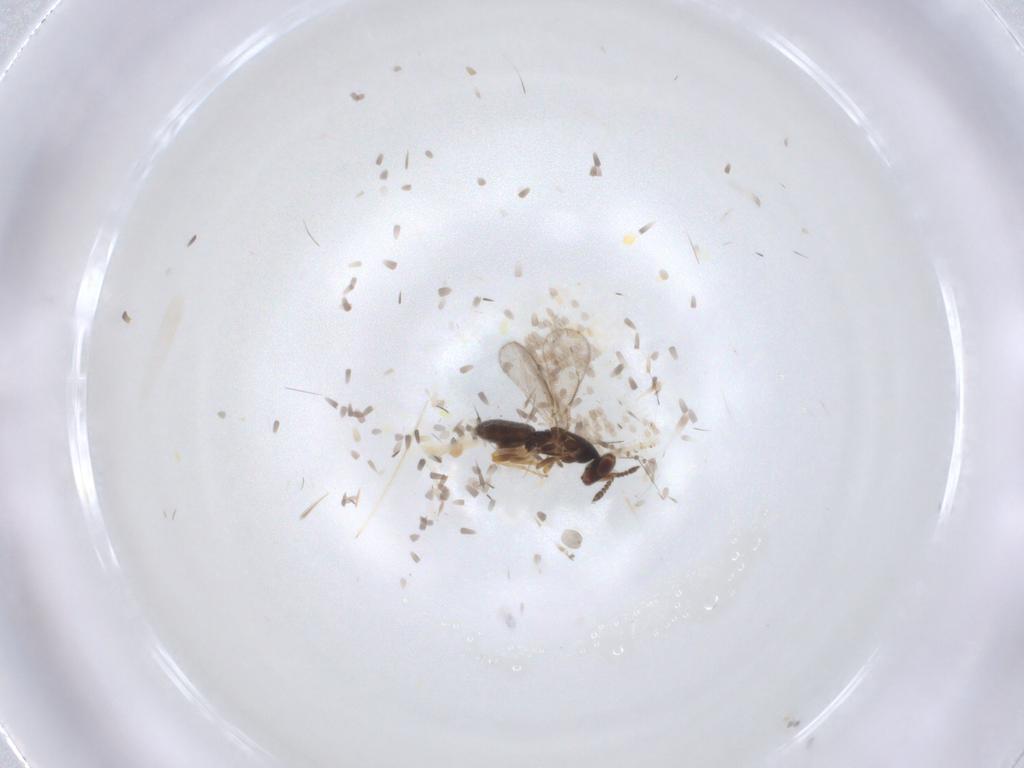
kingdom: Animalia
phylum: Arthropoda
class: Insecta
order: Hymenoptera
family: Eulophidae
